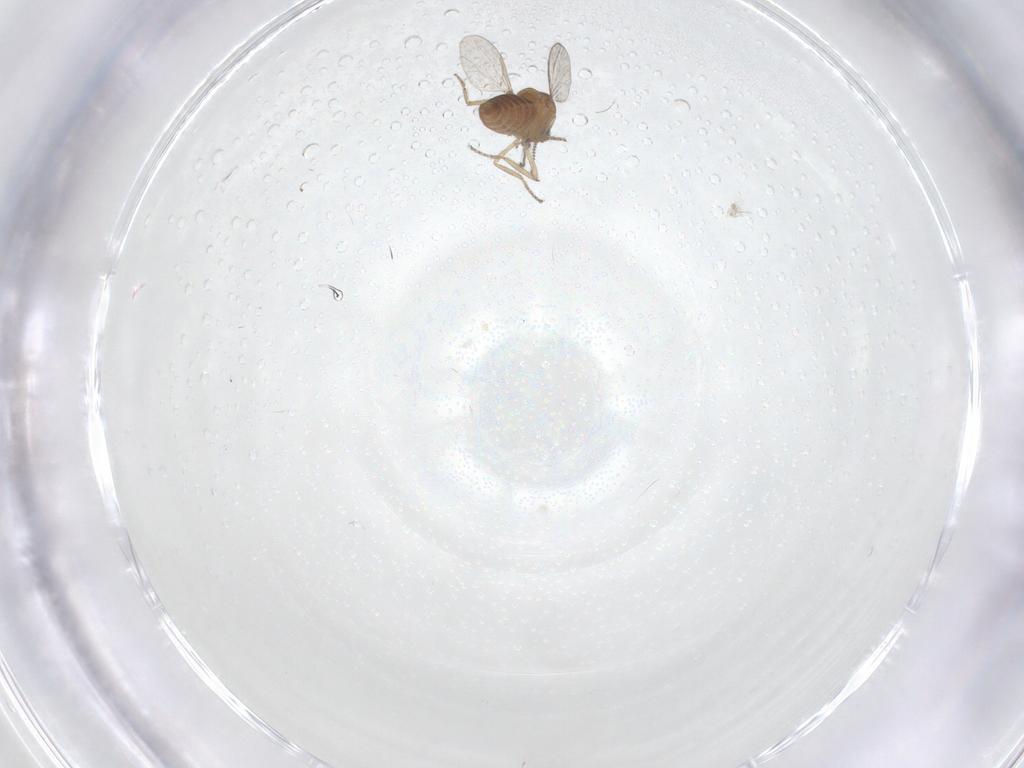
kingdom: Animalia
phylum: Arthropoda
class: Insecta
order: Diptera
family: Ceratopogonidae
